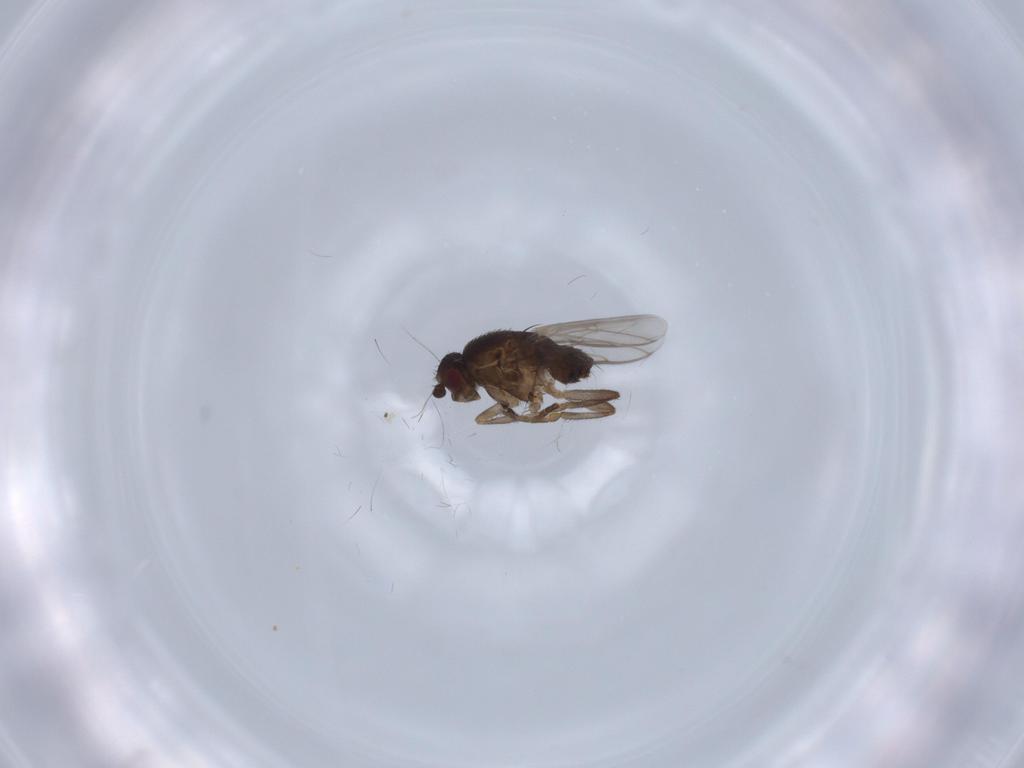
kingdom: Animalia
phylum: Arthropoda
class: Insecta
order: Diptera
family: Sphaeroceridae
